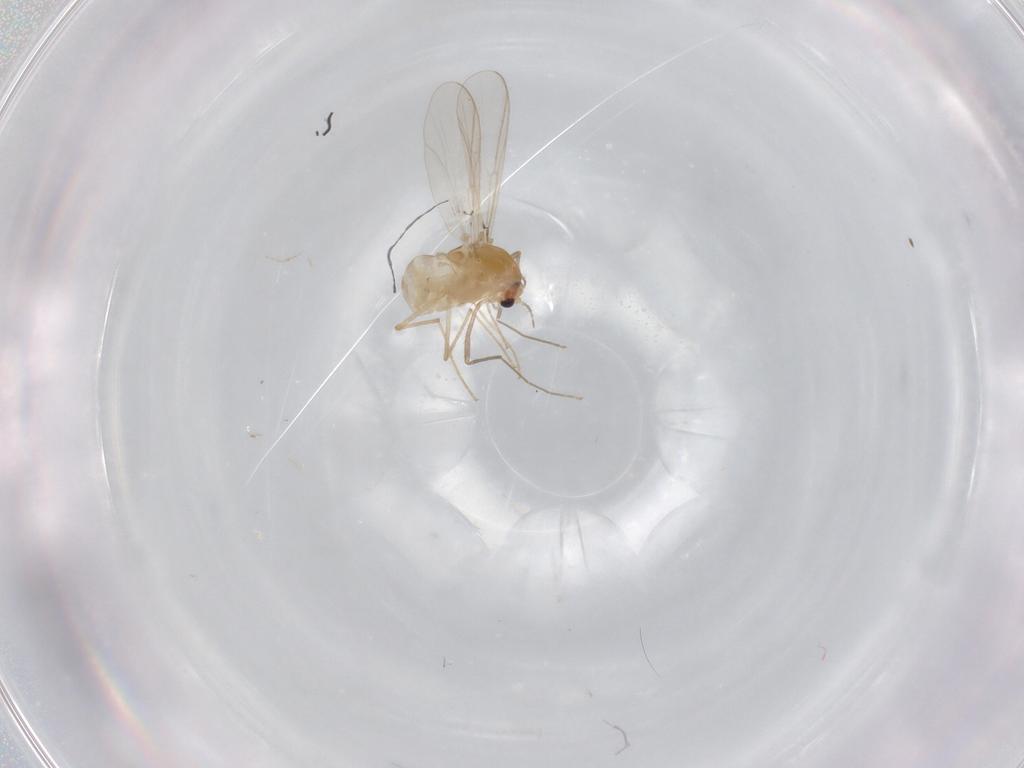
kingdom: Animalia
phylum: Arthropoda
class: Insecta
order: Diptera
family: Chironomidae
